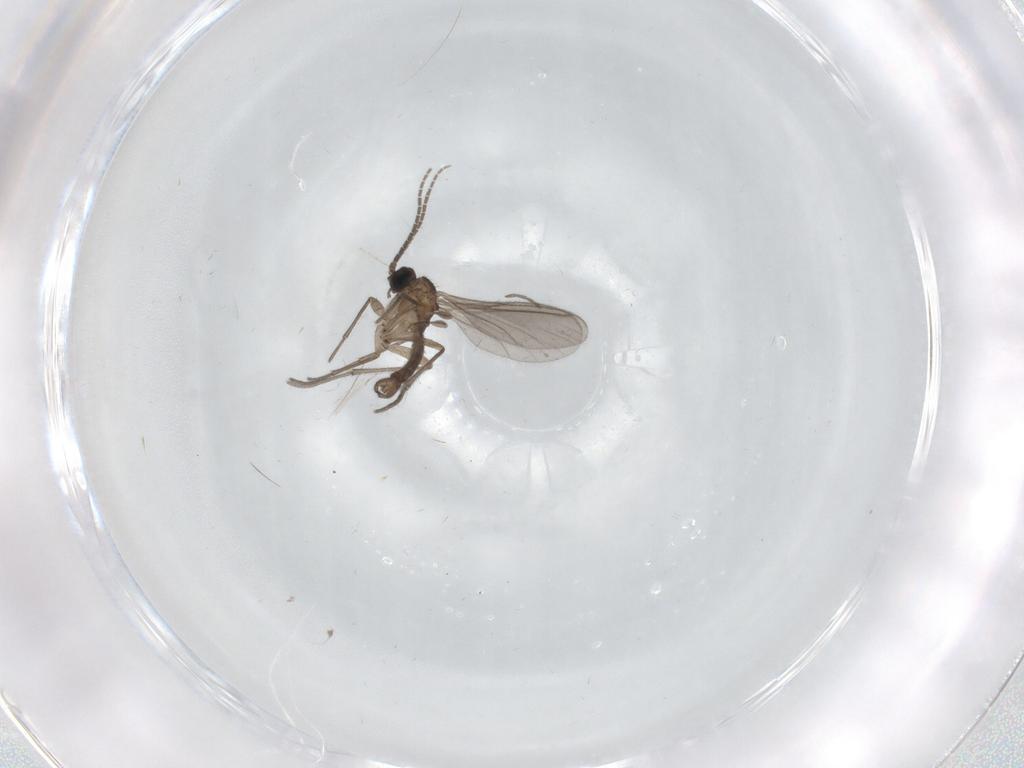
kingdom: Animalia
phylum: Arthropoda
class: Insecta
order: Diptera
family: Sciaridae
